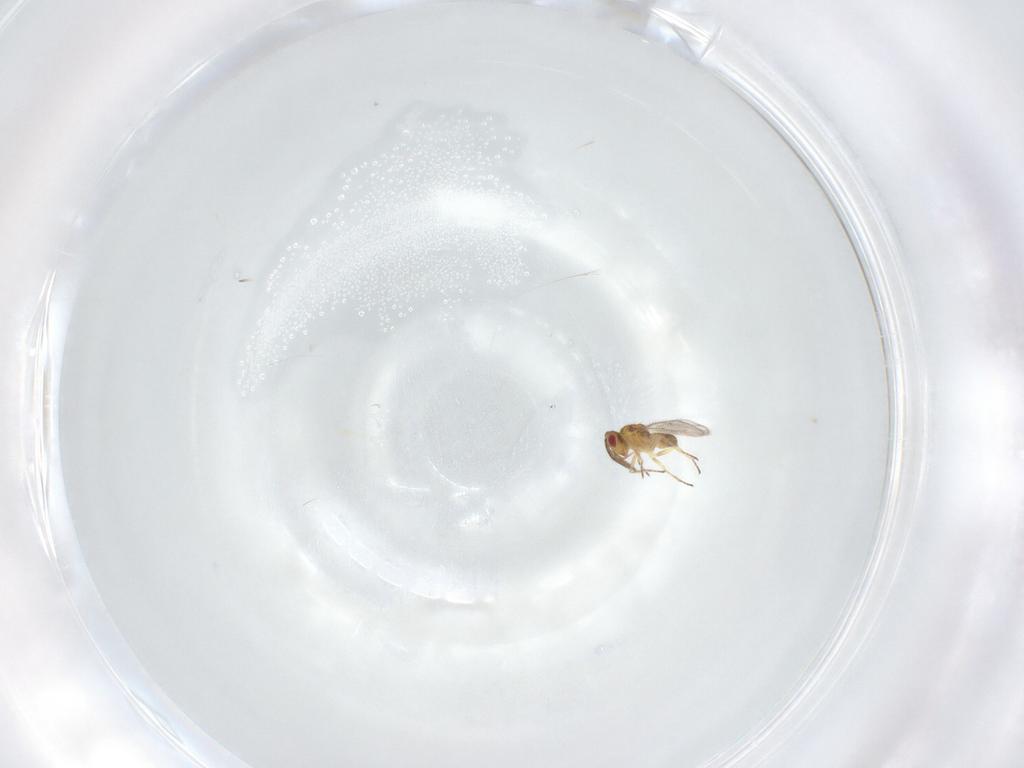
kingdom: Animalia
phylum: Arthropoda
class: Insecta
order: Hymenoptera
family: Eulophidae
